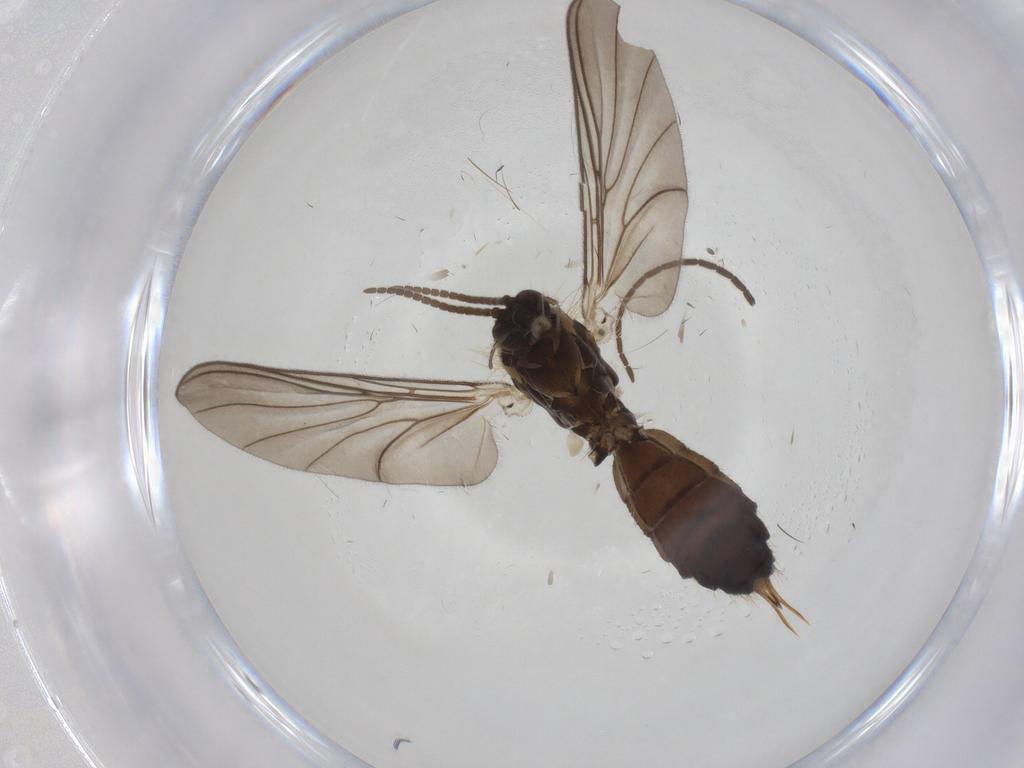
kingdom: Animalia
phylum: Arthropoda
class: Insecta
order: Diptera
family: Mycetophilidae
